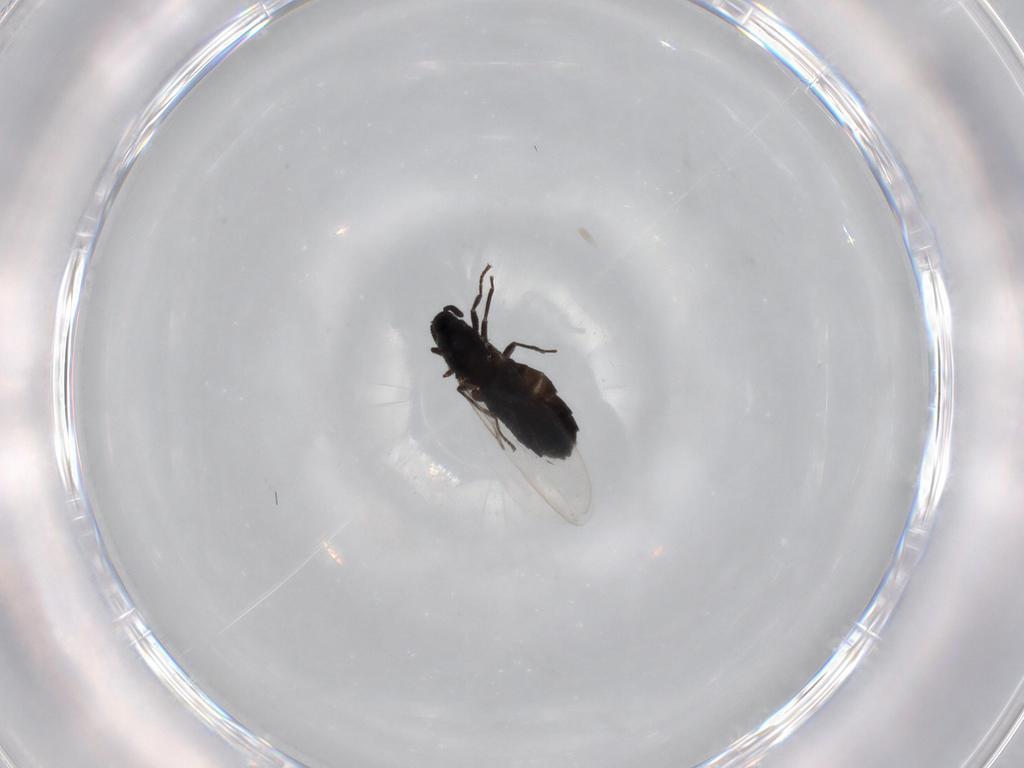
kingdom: Animalia
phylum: Arthropoda
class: Insecta
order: Diptera
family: Scatopsidae
